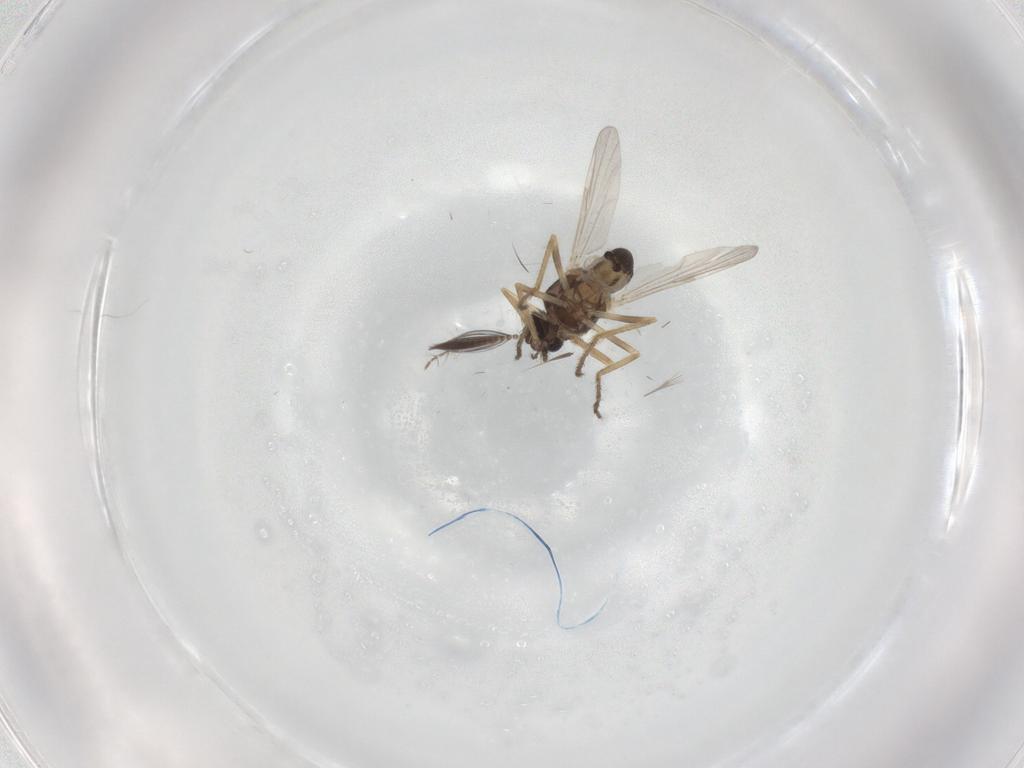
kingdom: Animalia
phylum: Arthropoda
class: Insecta
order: Diptera
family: Ceratopogonidae
